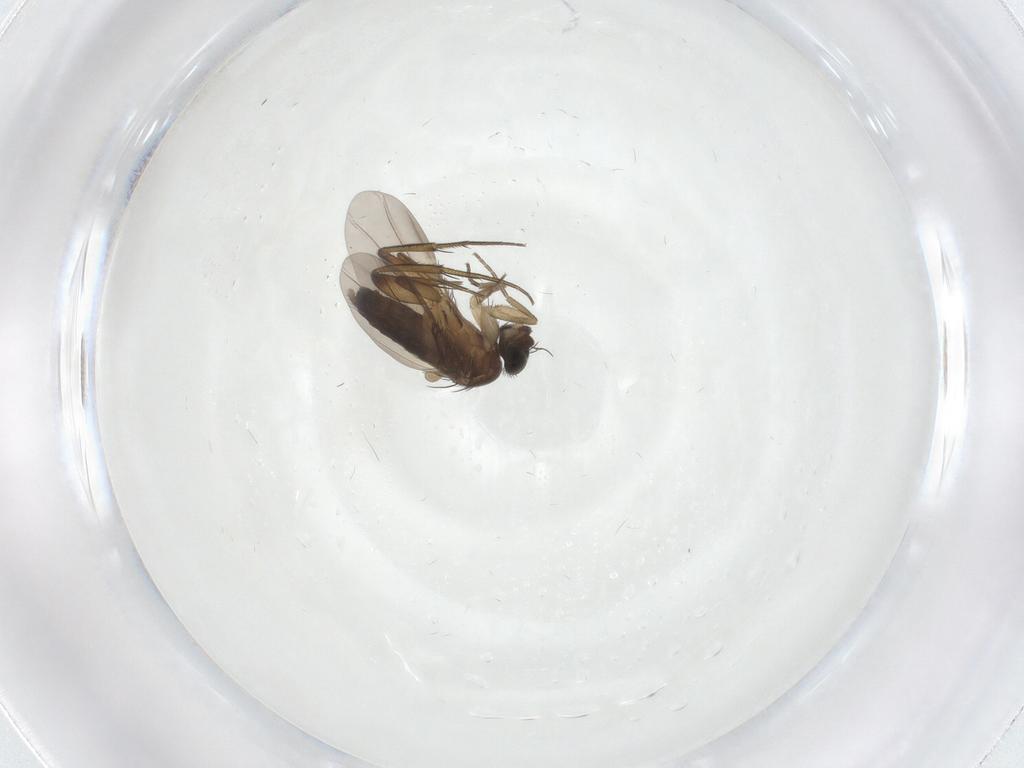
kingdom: Animalia
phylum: Arthropoda
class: Insecta
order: Diptera
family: Phoridae
